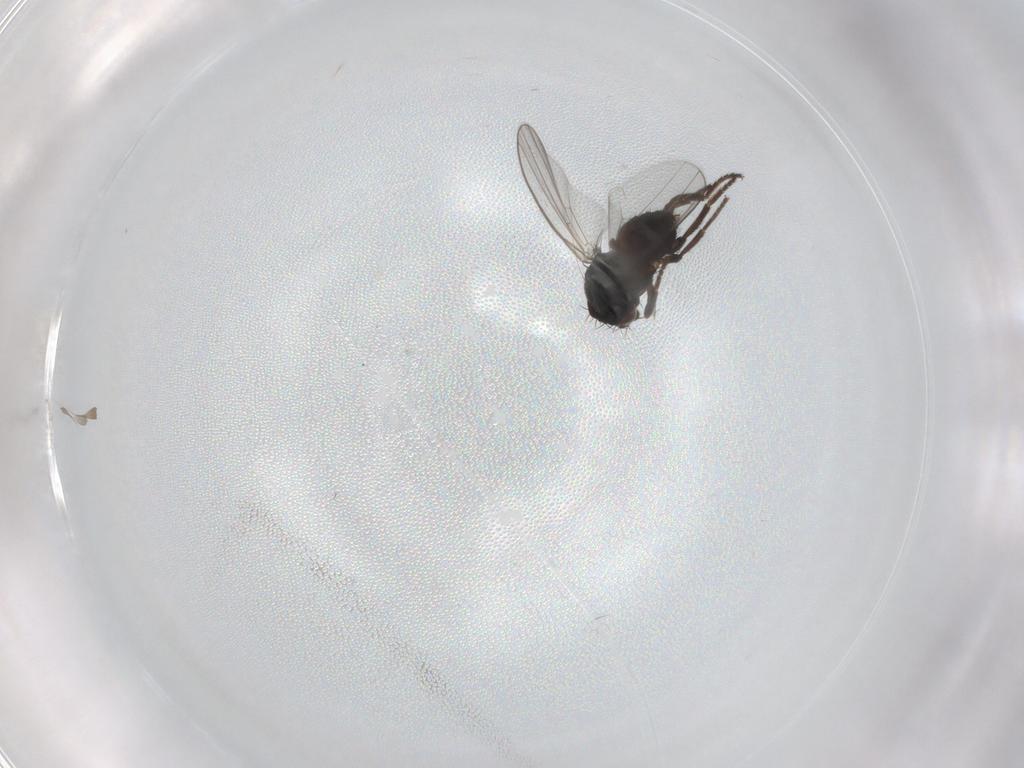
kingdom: Animalia
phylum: Arthropoda
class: Insecta
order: Diptera
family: Milichiidae
